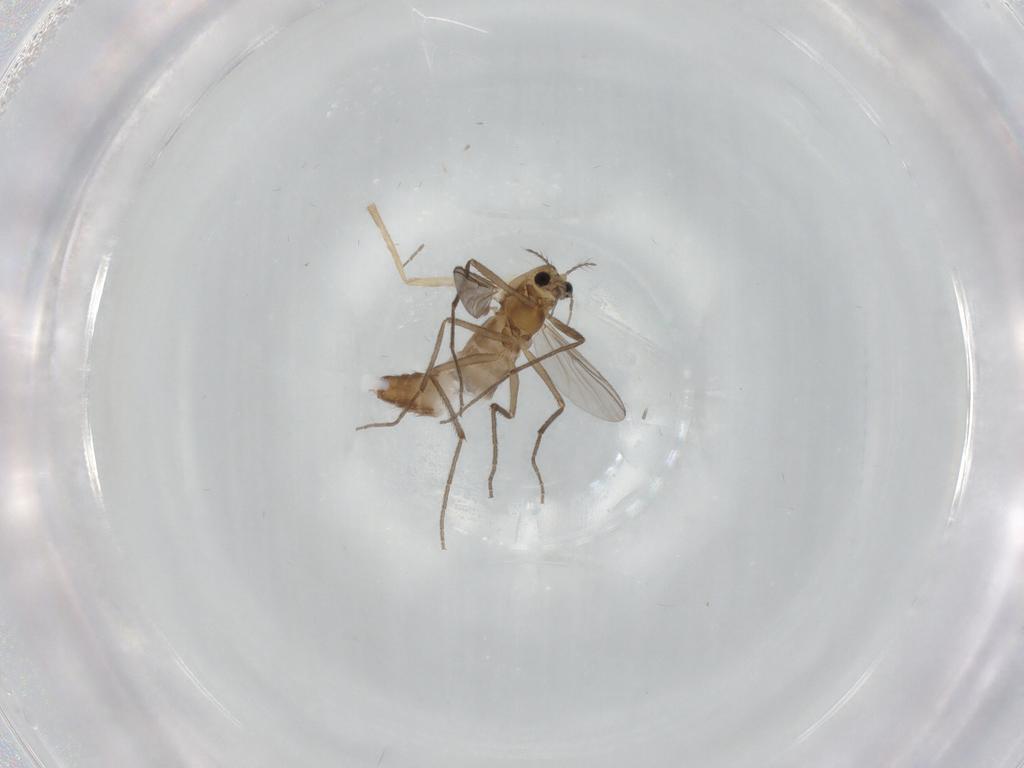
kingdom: Animalia
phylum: Arthropoda
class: Insecta
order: Diptera
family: Chironomidae
